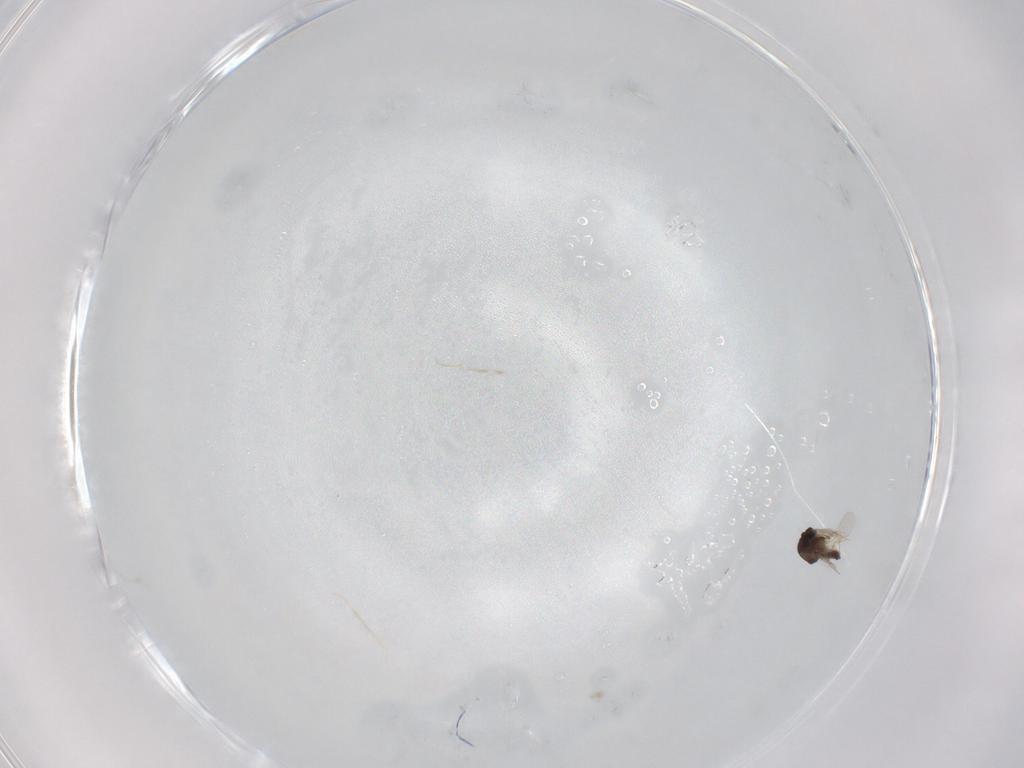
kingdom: Animalia
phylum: Arthropoda
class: Insecta
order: Diptera
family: Ceratopogonidae
